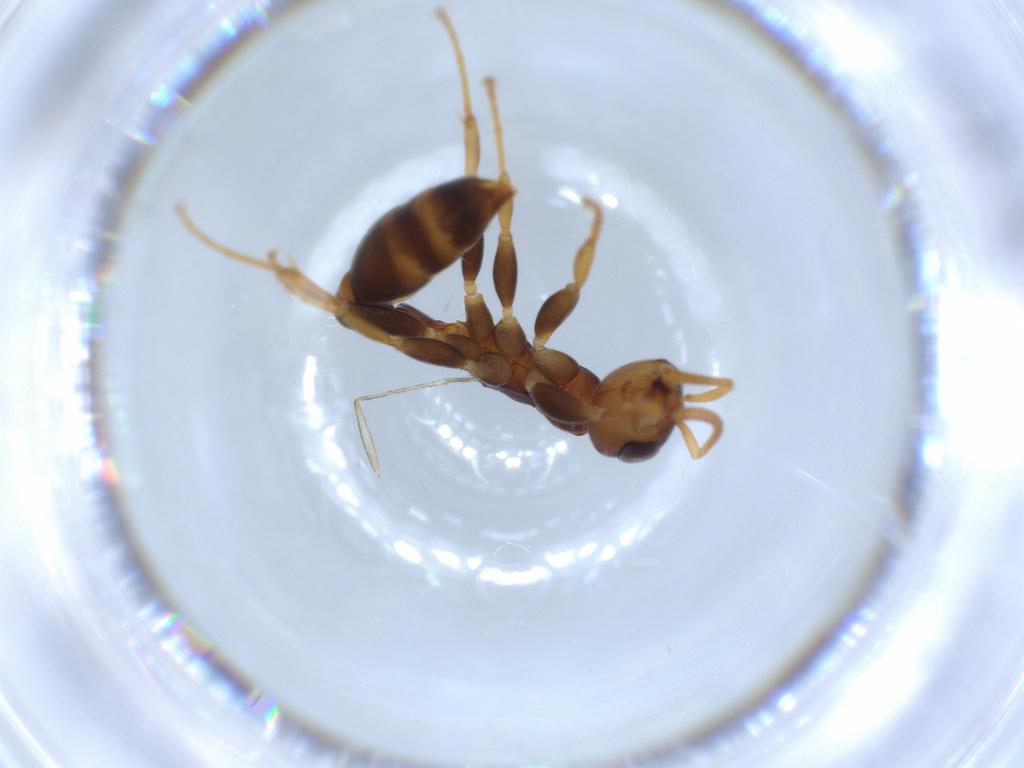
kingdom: Animalia
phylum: Arthropoda
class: Insecta
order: Hymenoptera
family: Formicidae
